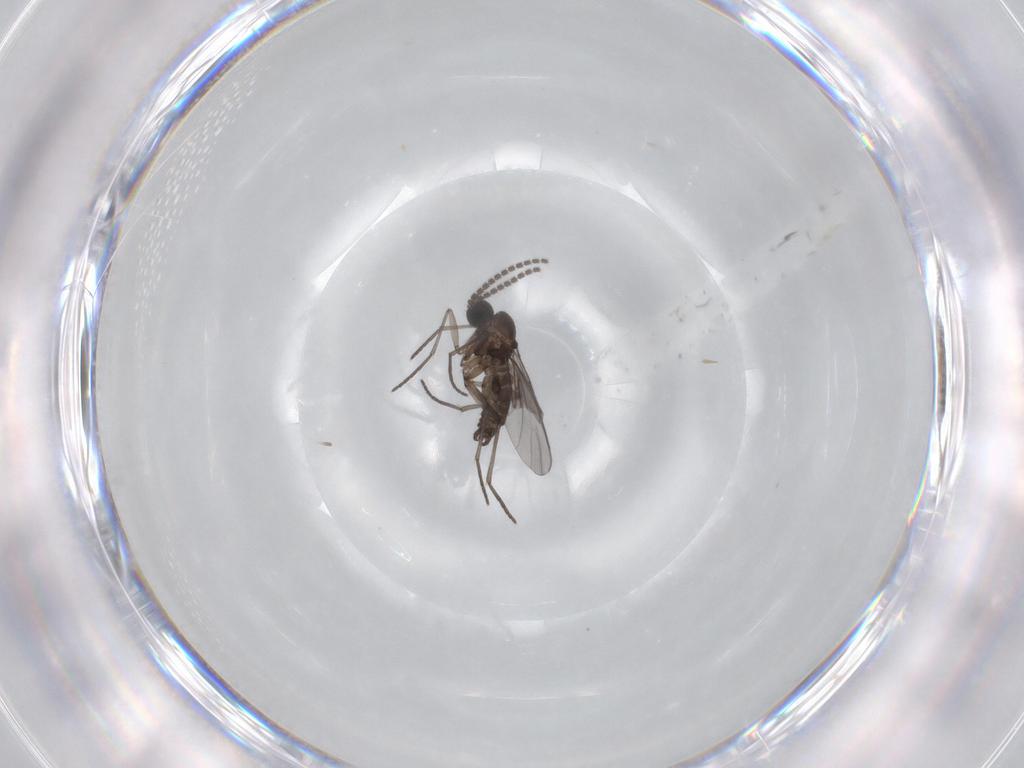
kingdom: Animalia
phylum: Arthropoda
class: Insecta
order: Diptera
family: Sciaridae
